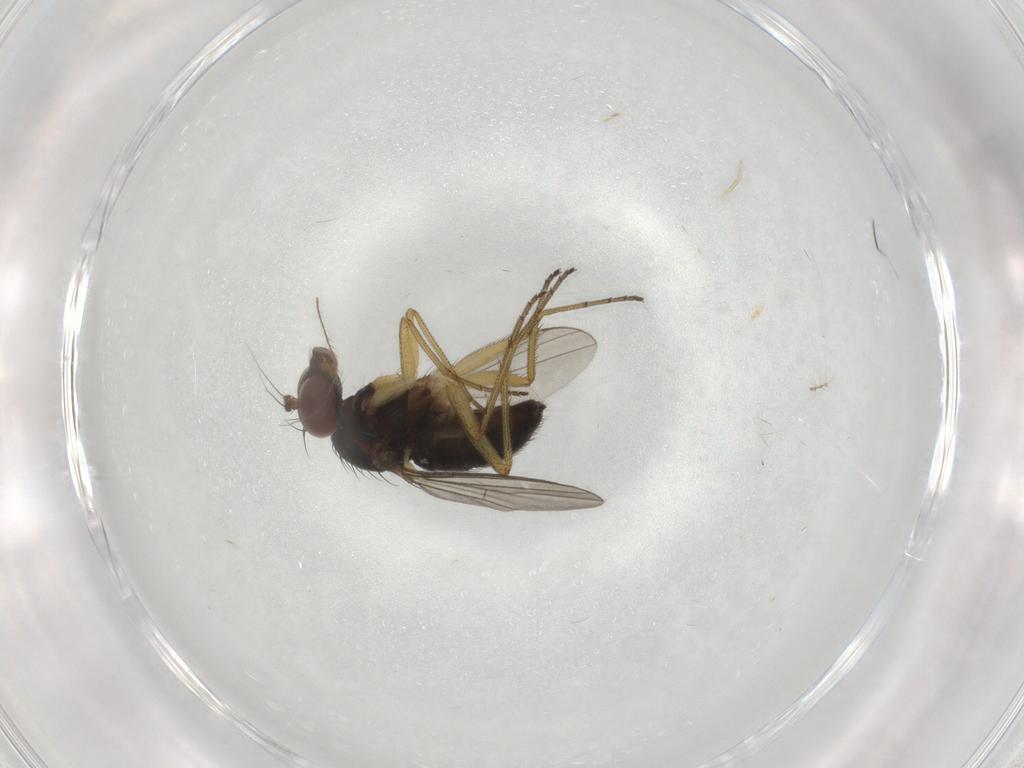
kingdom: Animalia
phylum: Arthropoda
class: Insecta
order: Diptera
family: Dolichopodidae
